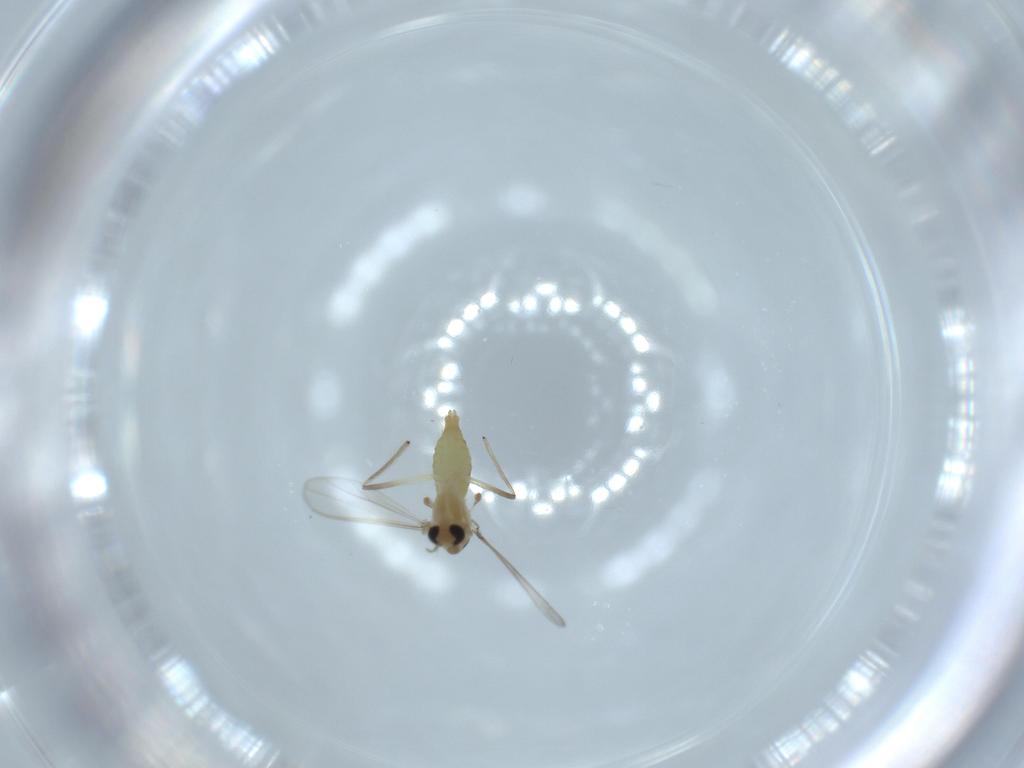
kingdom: Animalia
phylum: Arthropoda
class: Insecta
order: Diptera
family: Chironomidae
